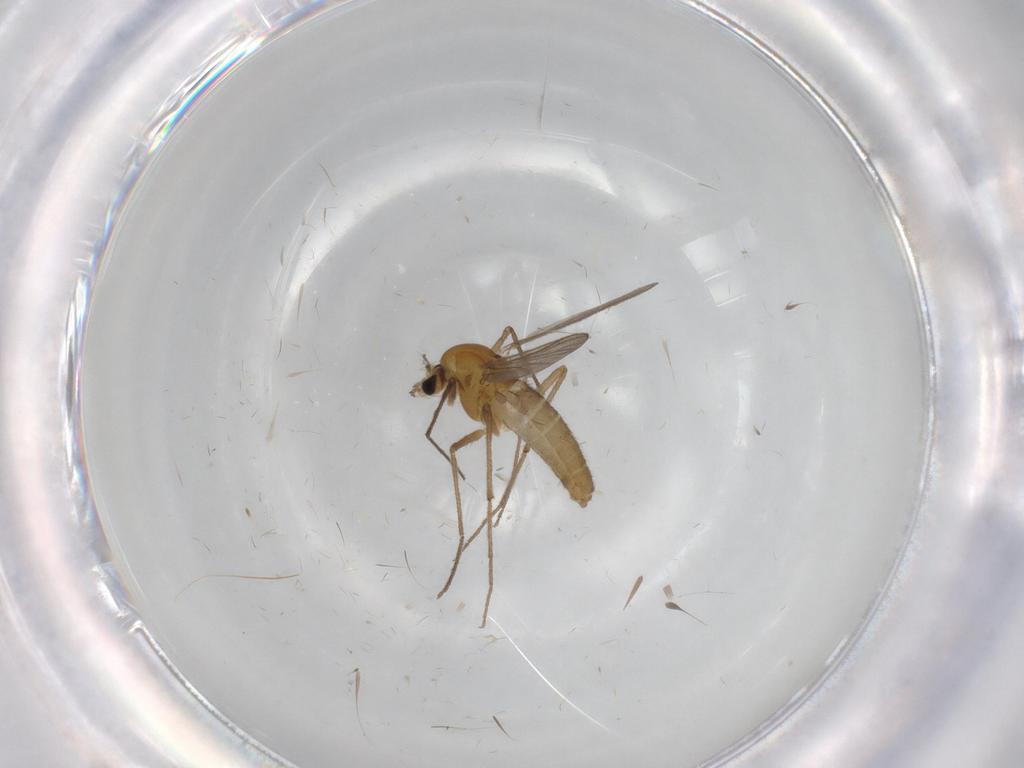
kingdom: Animalia
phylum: Arthropoda
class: Insecta
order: Diptera
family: Chironomidae
